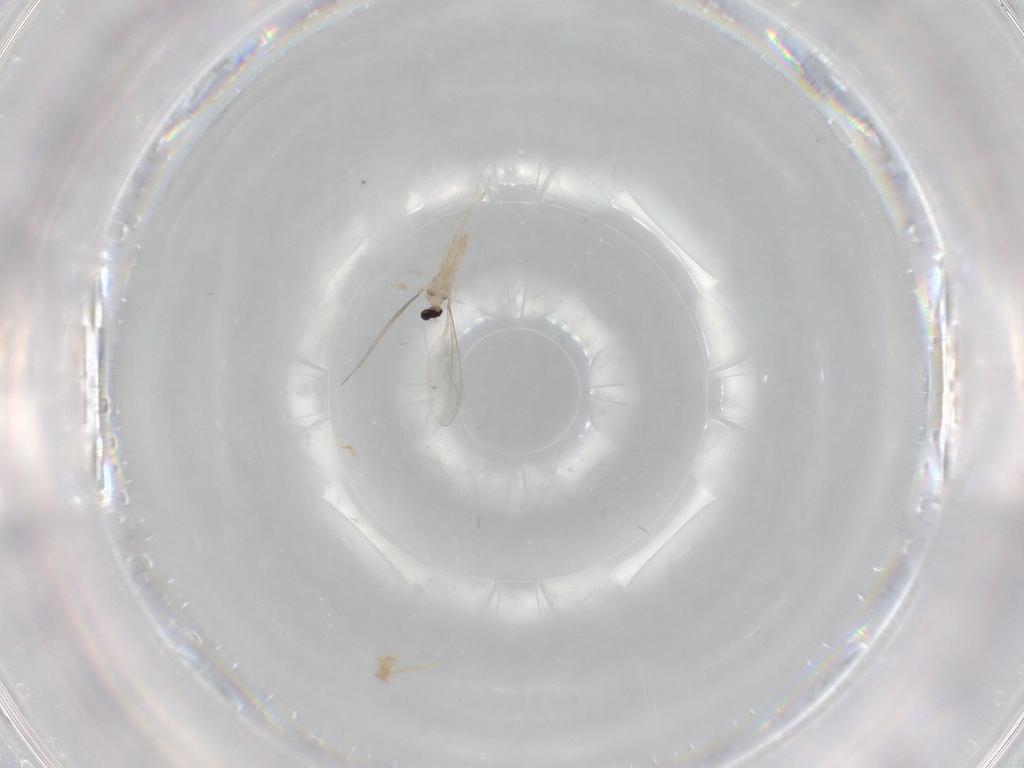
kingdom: Animalia
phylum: Arthropoda
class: Insecta
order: Diptera
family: Cecidomyiidae
